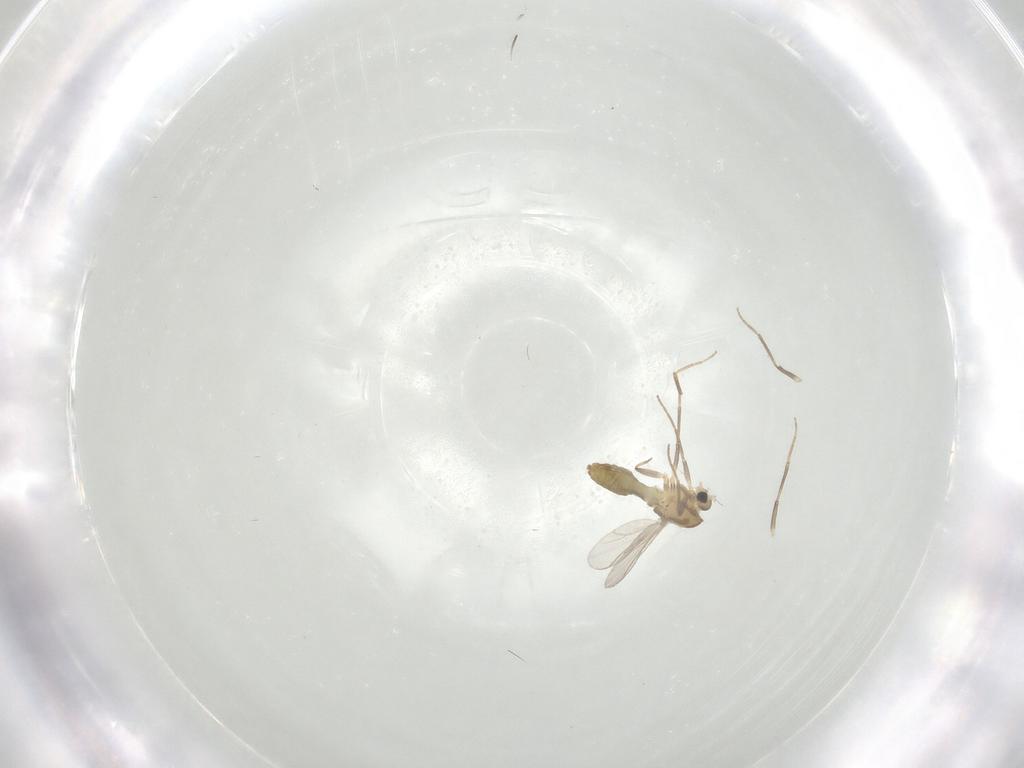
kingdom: Animalia
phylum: Arthropoda
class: Insecta
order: Diptera
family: Chironomidae
